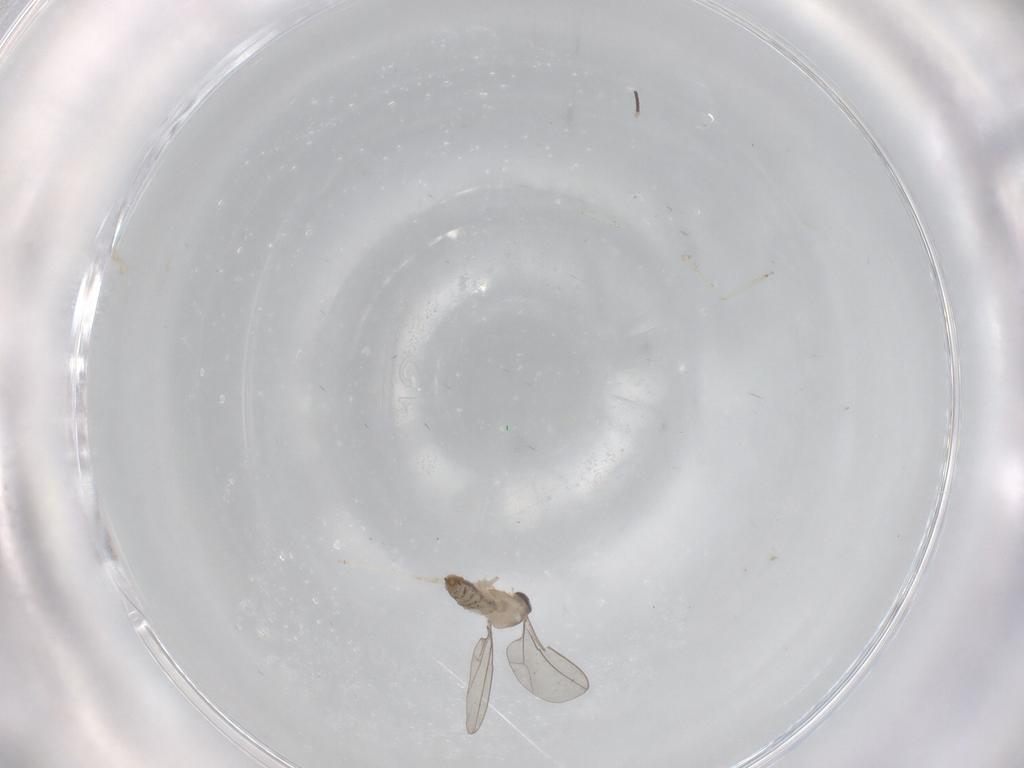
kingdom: Animalia
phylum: Arthropoda
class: Insecta
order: Diptera
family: Cecidomyiidae
